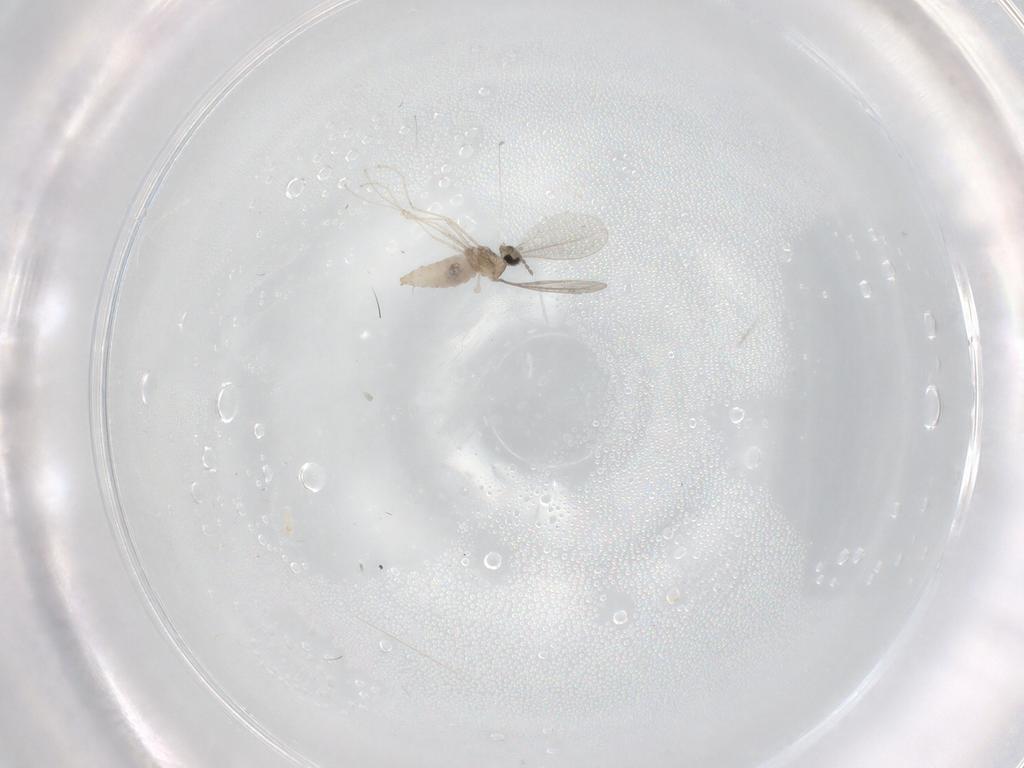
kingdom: Animalia
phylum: Arthropoda
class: Insecta
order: Diptera
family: Cecidomyiidae
